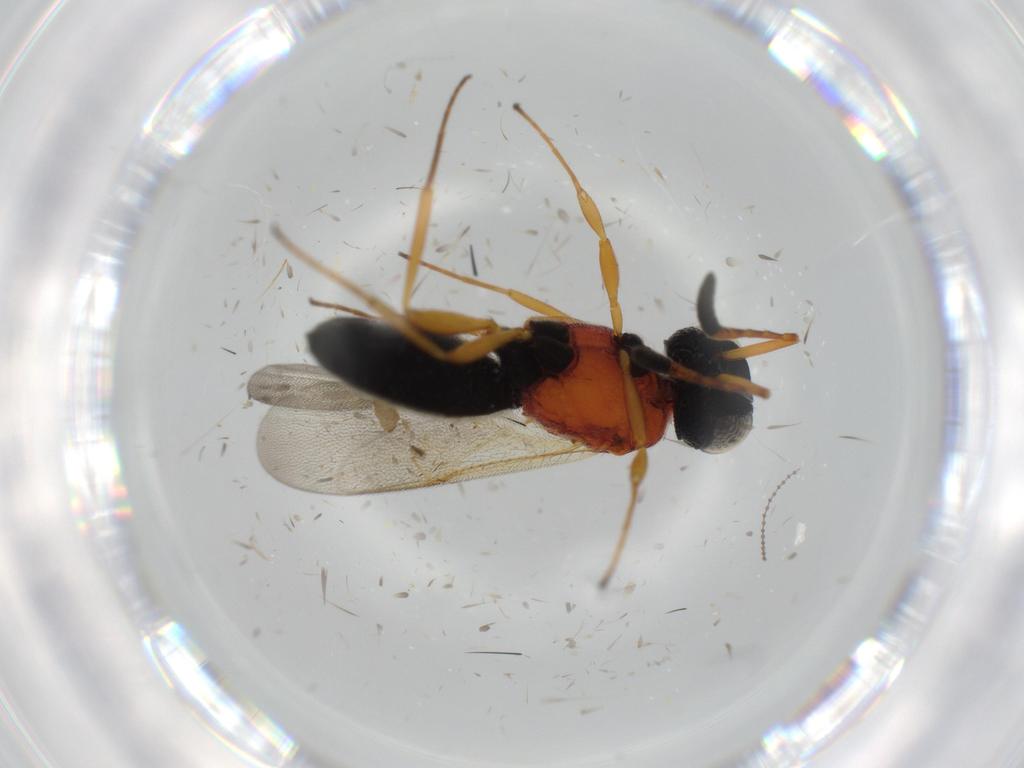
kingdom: Animalia
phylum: Arthropoda
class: Insecta
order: Hymenoptera
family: Scelionidae
